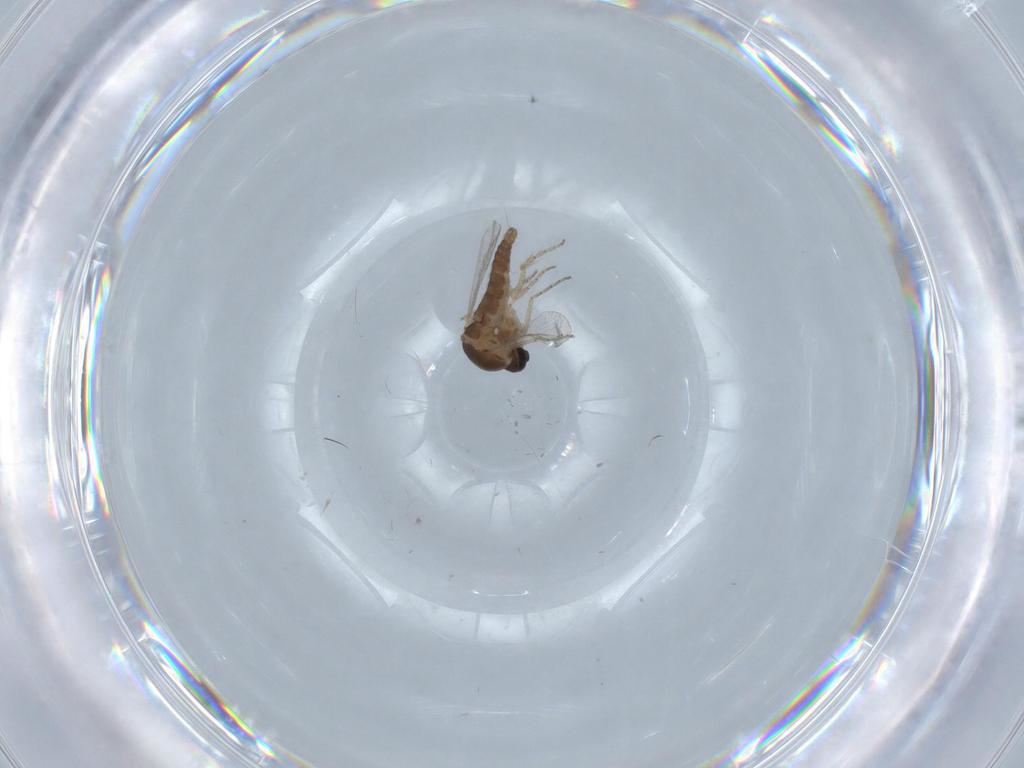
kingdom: Animalia
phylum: Arthropoda
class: Insecta
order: Diptera
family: Ceratopogonidae
